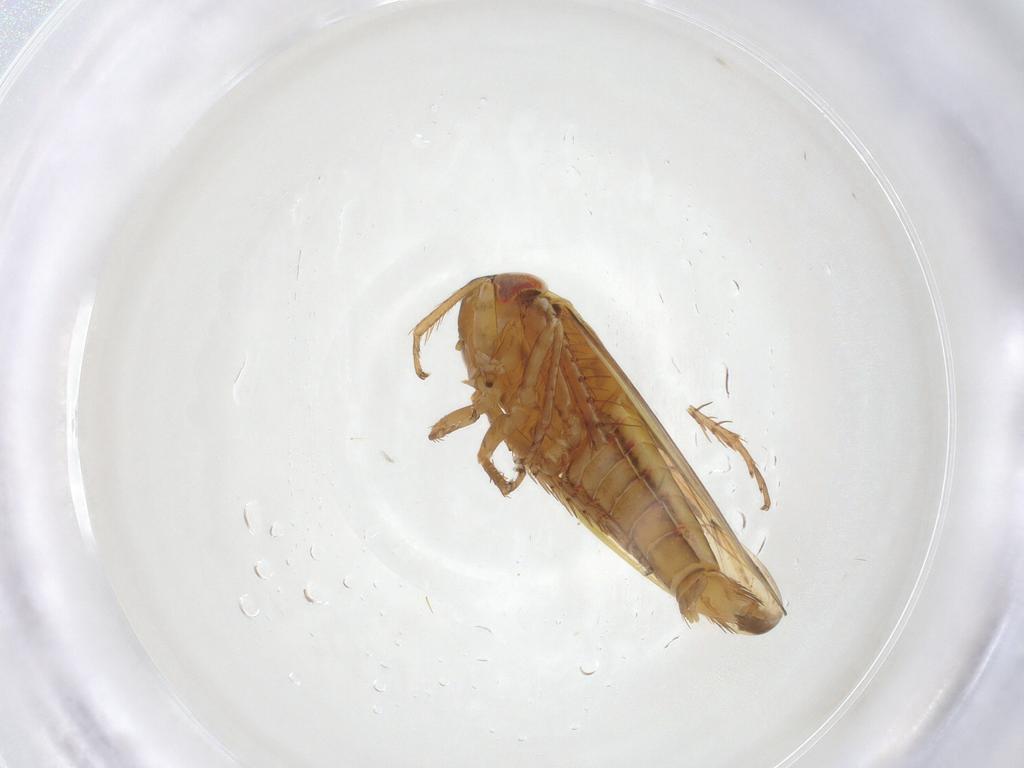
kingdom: Animalia
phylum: Arthropoda
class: Insecta
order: Hemiptera
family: Cicadellidae
